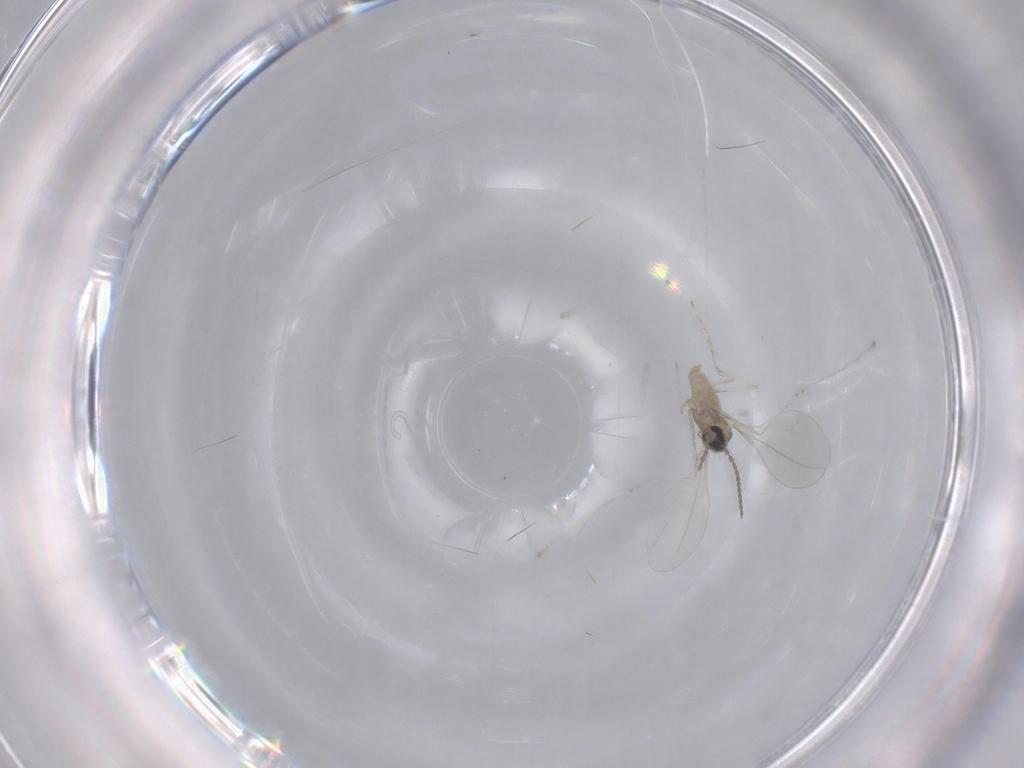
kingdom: Animalia
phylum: Arthropoda
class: Insecta
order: Diptera
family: Chironomidae
